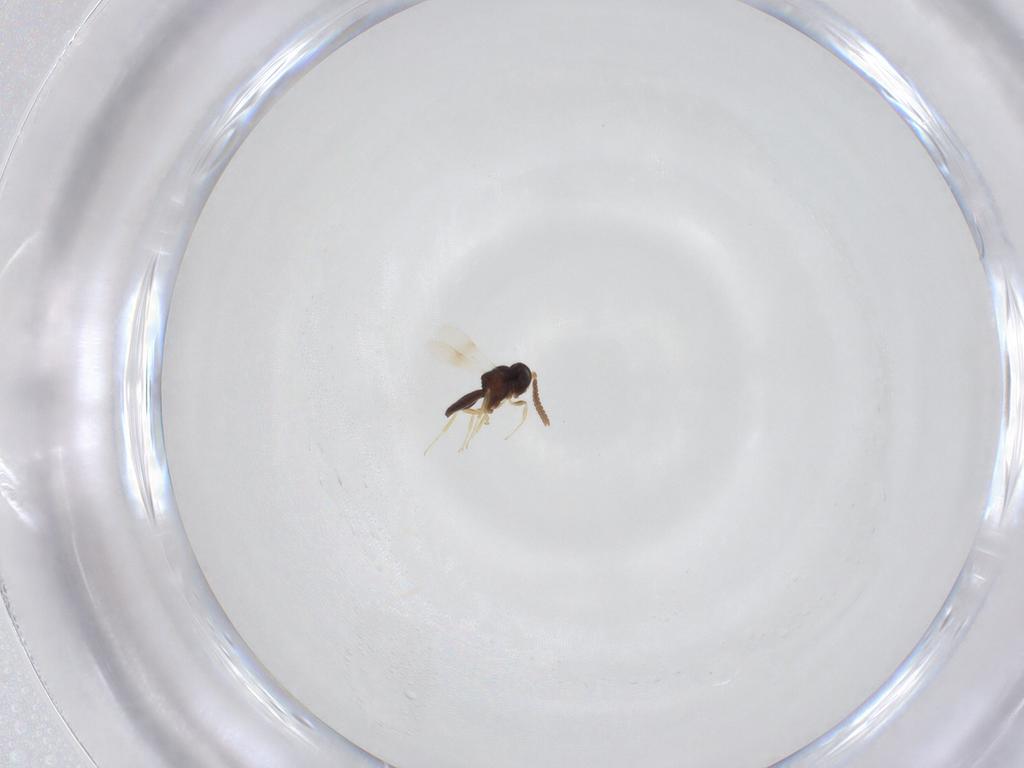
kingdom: Animalia
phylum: Arthropoda
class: Insecta
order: Hymenoptera
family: Scelionidae
